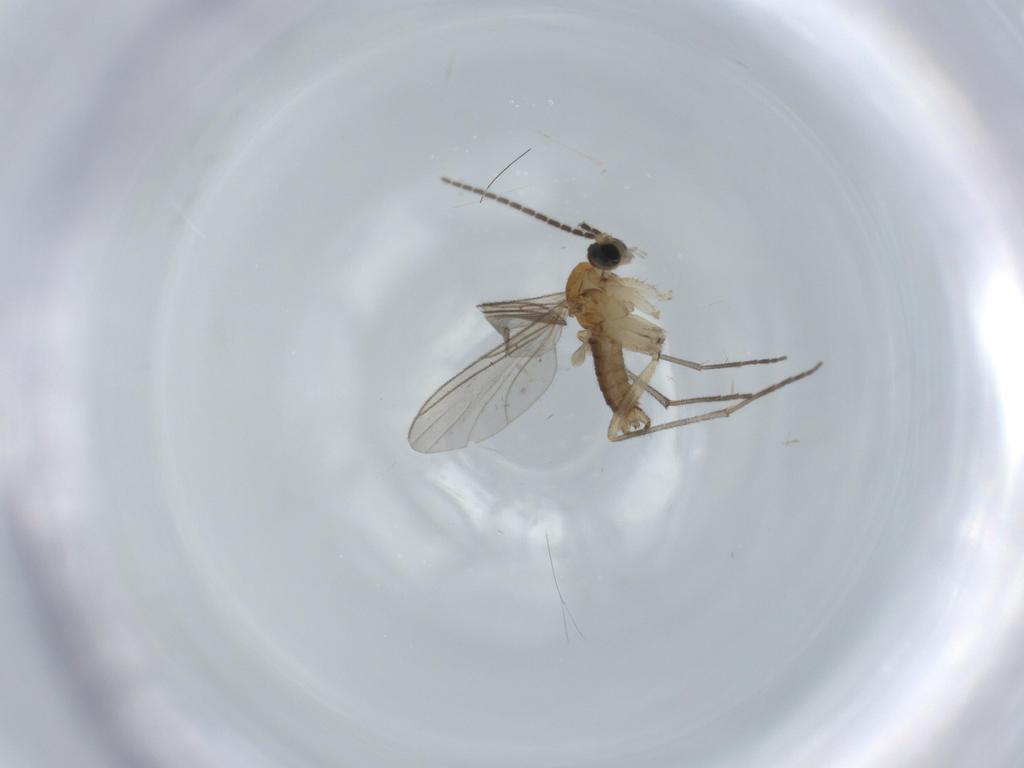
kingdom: Animalia
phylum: Arthropoda
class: Insecta
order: Diptera
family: Sciaridae
